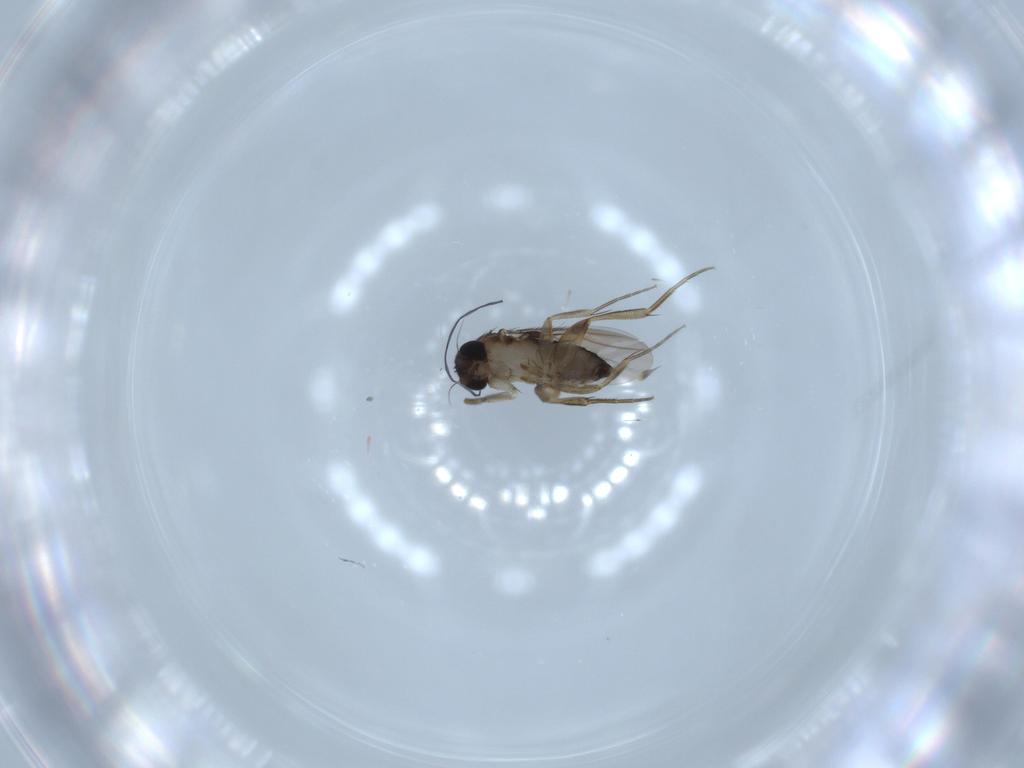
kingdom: Animalia
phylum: Arthropoda
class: Insecta
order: Diptera
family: Phoridae
